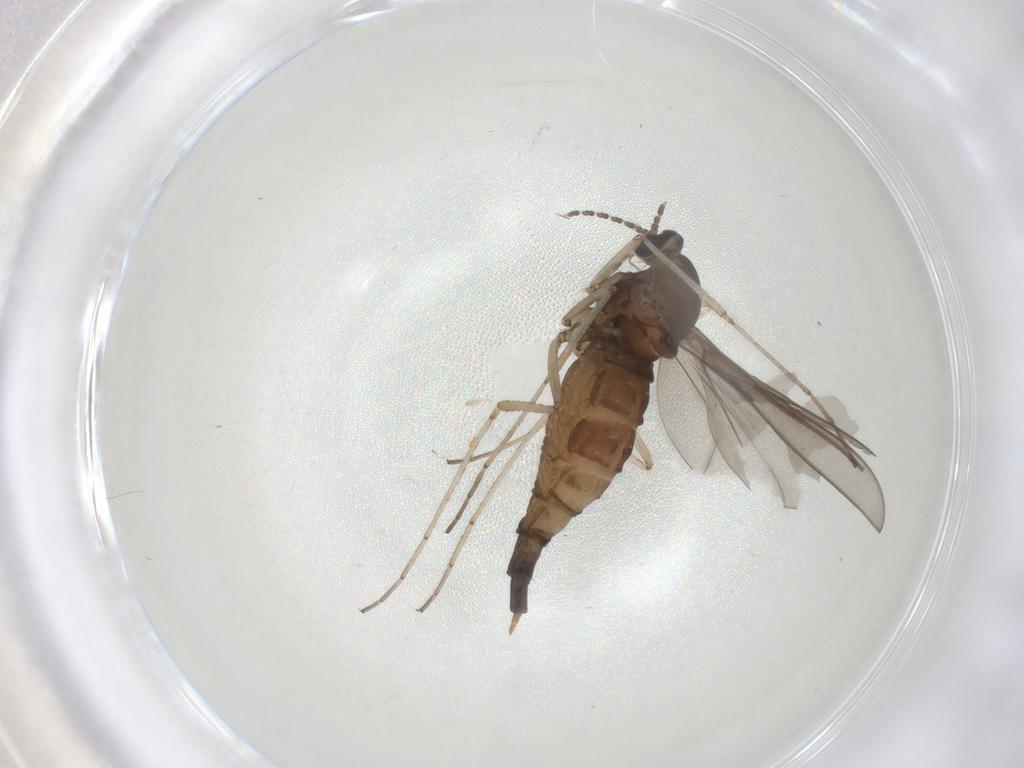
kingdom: Animalia
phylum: Arthropoda
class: Insecta
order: Diptera
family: Cecidomyiidae
